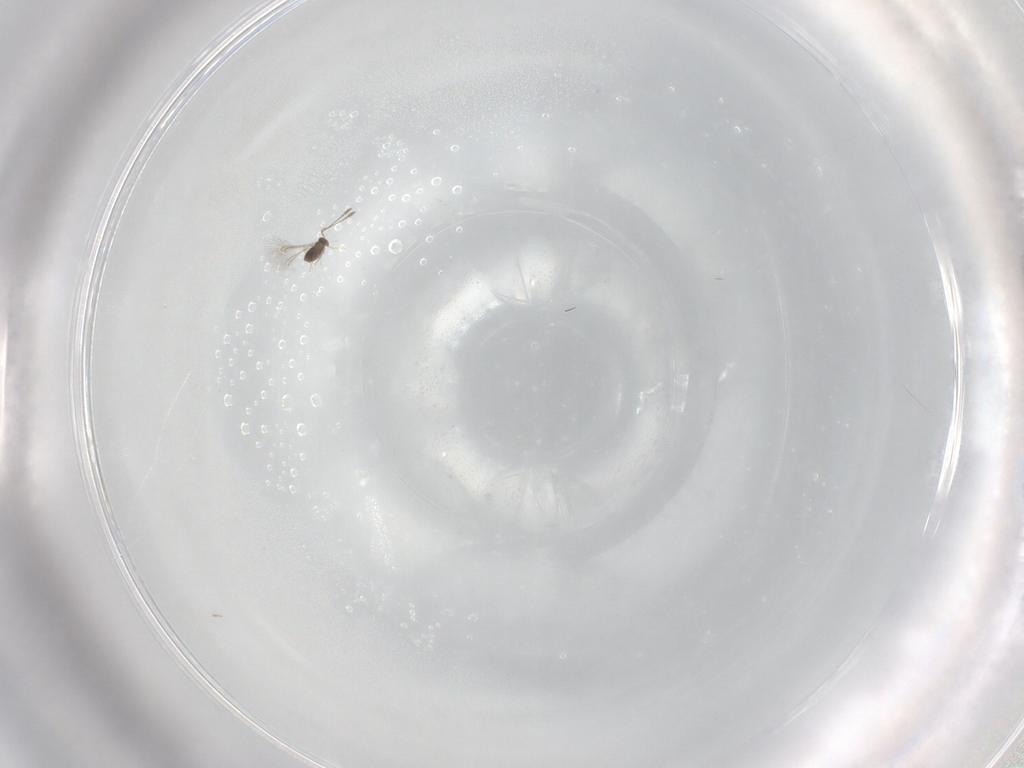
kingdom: Animalia
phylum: Arthropoda
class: Insecta
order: Hymenoptera
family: Mymaridae
